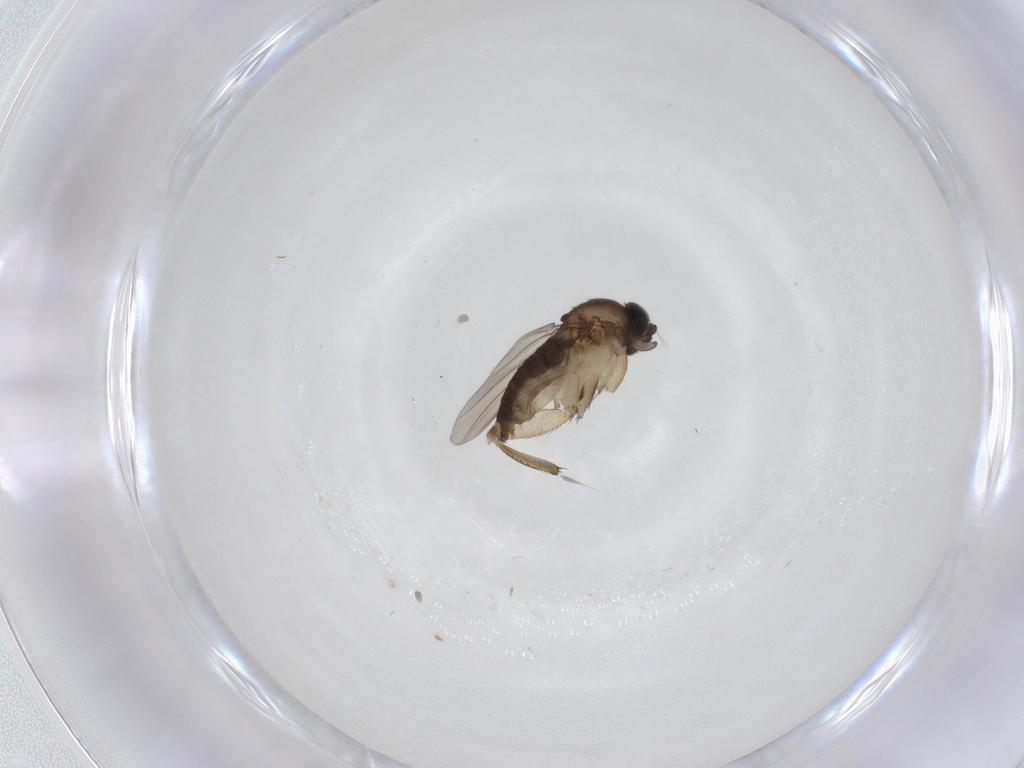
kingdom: Animalia
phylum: Arthropoda
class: Insecta
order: Diptera
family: Phoridae
